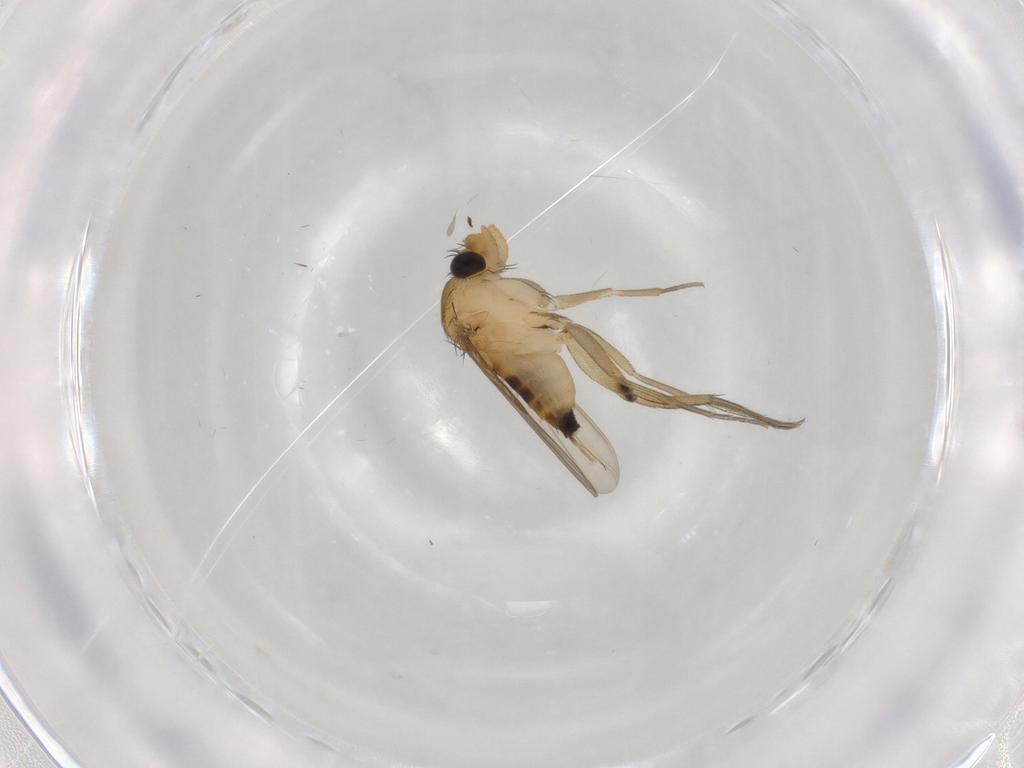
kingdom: Animalia
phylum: Arthropoda
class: Insecta
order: Diptera
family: Phoridae
